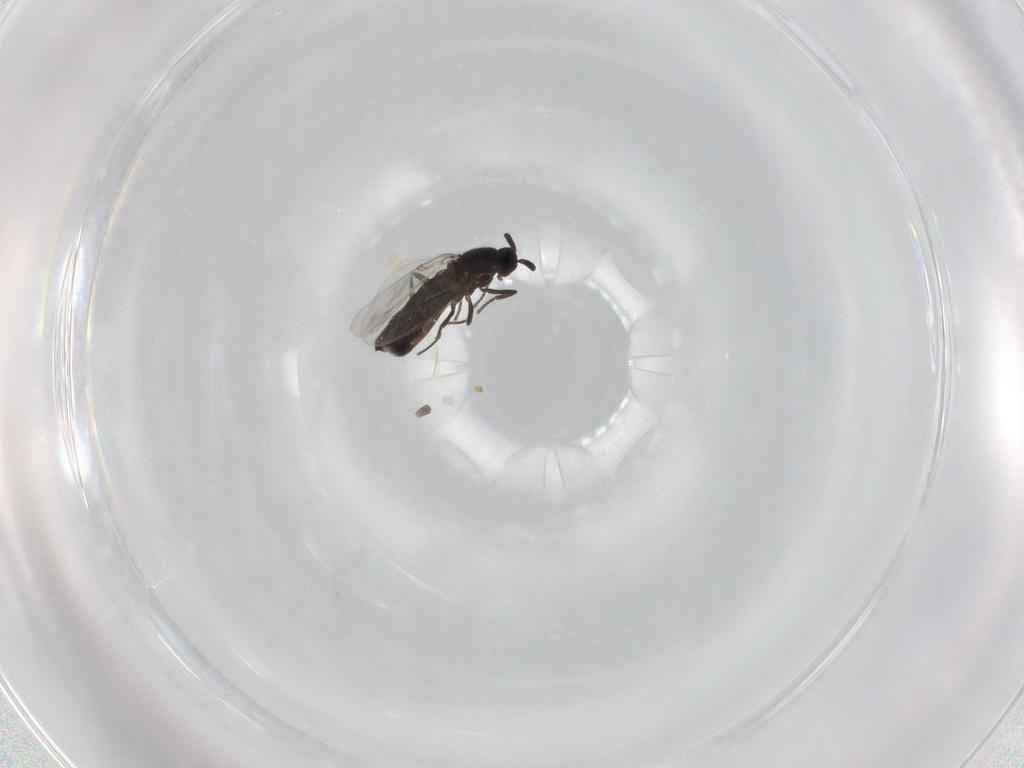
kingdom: Animalia
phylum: Arthropoda
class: Insecta
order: Diptera
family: Scatopsidae
